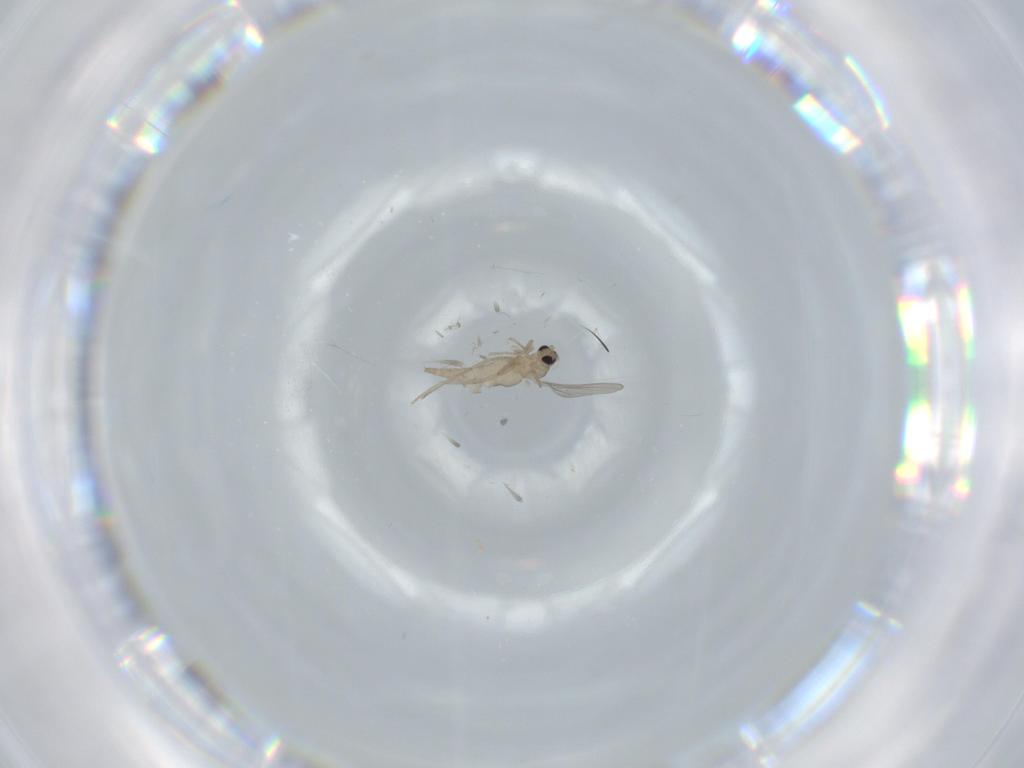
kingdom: Animalia
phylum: Arthropoda
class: Insecta
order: Diptera
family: Cecidomyiidae
